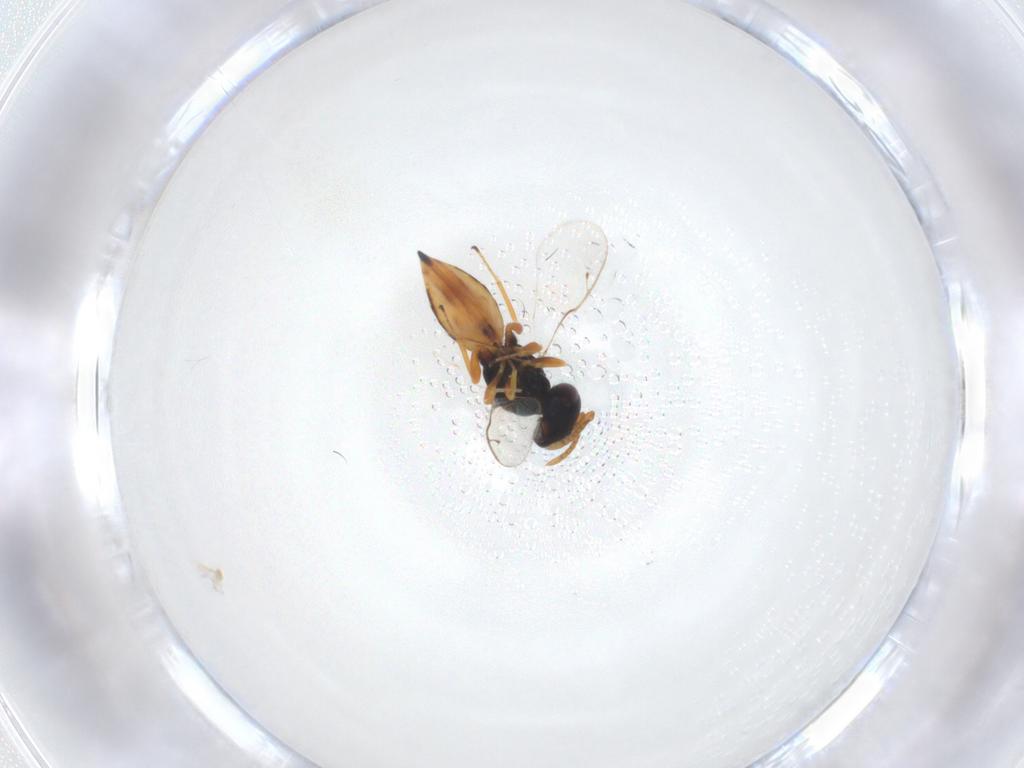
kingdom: Animalia
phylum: Arthropoda
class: Insecta
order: Hymenoptera
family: Pteromalidae
